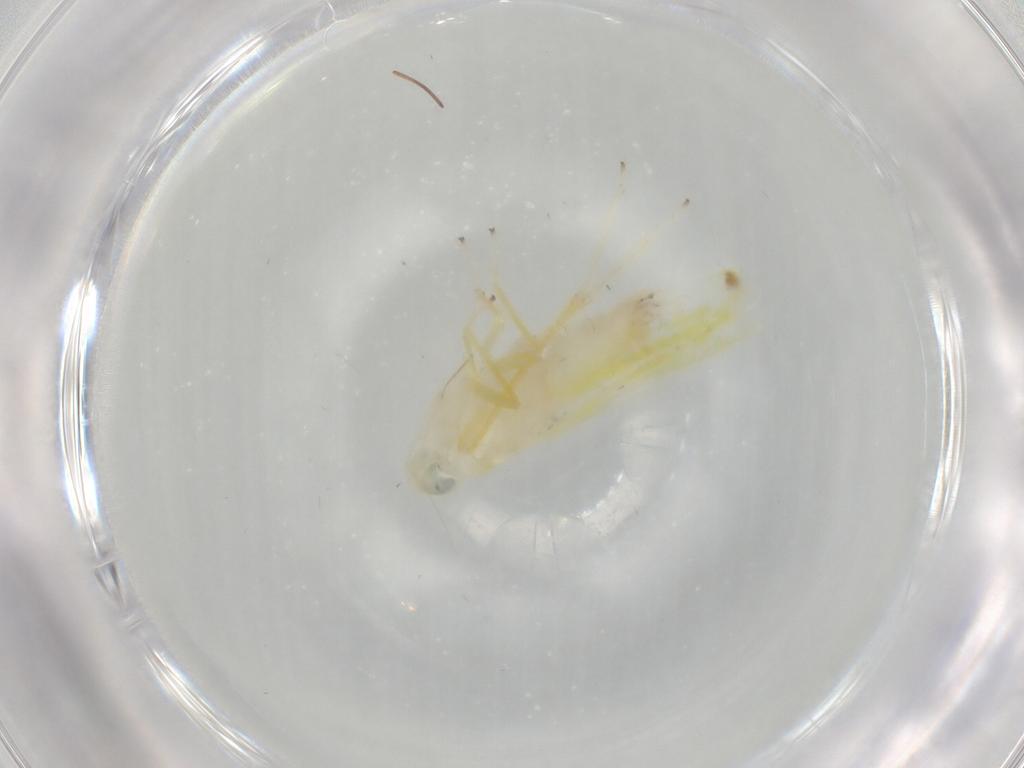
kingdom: Animalia
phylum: Arthropoda
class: Insecta
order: Hemiptera
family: Cicadellidae
